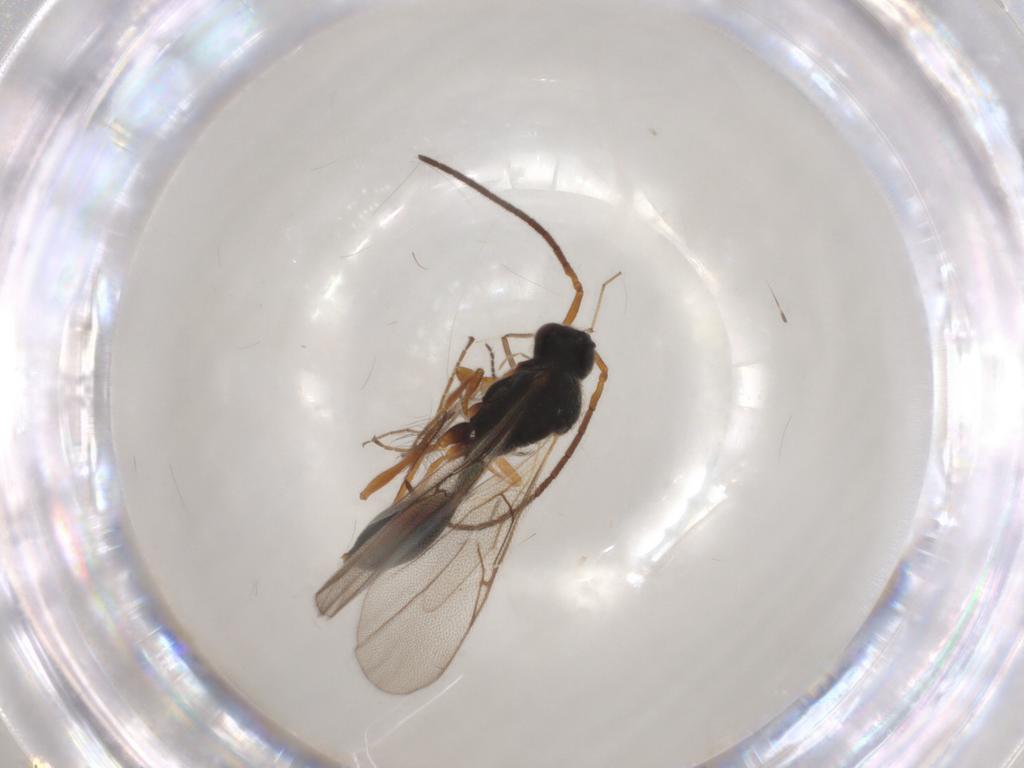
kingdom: Animalia
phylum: Arthropoda
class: Insecta
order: Hymenoptera
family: Diapriidae
